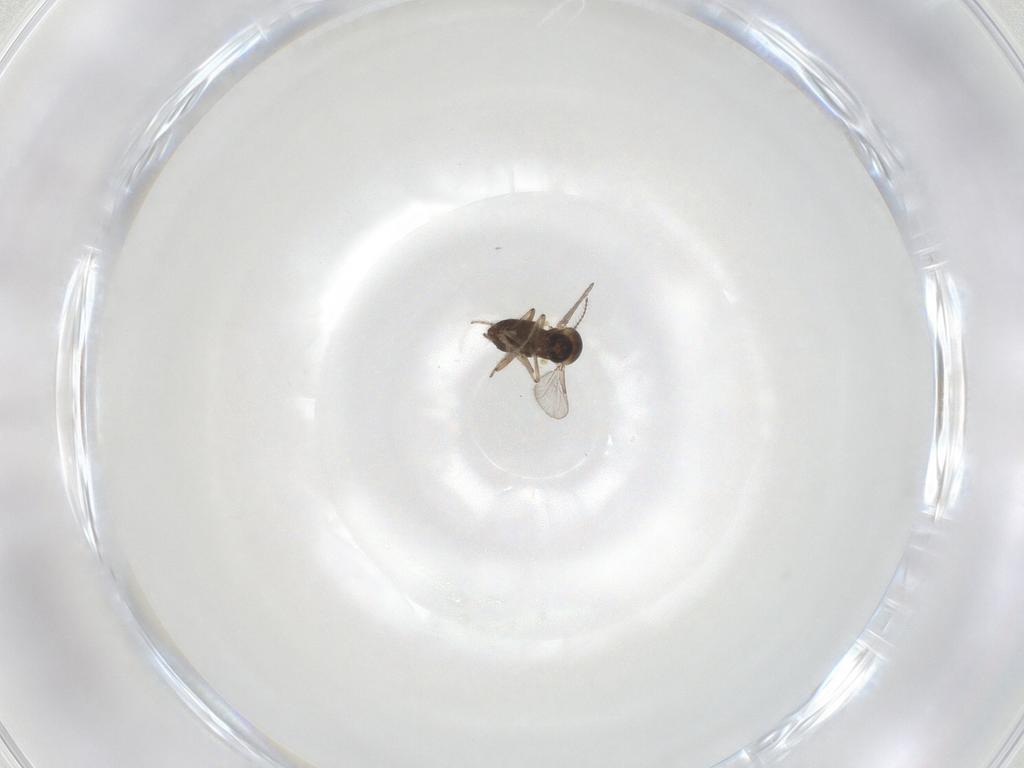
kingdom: Animalia
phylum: Arthropoda
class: Insecta
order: Diptera
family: Ceratopogonidae
